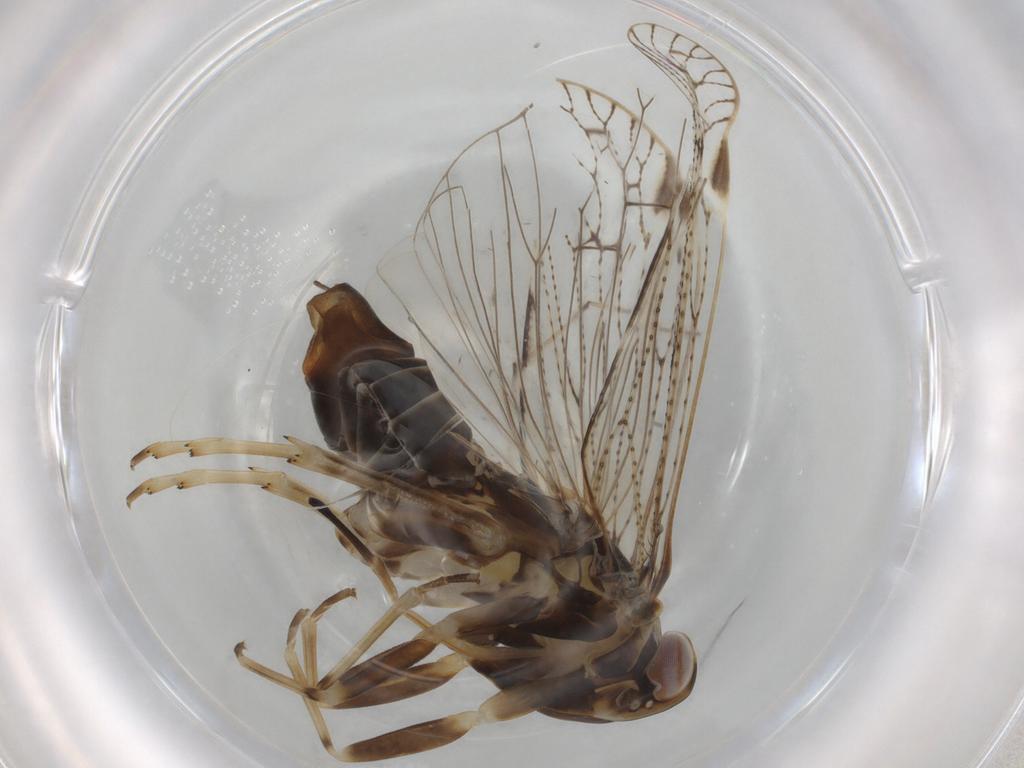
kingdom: Animalia
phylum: Arthropoda
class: Insecta
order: Hemiptera
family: Cixiidae
